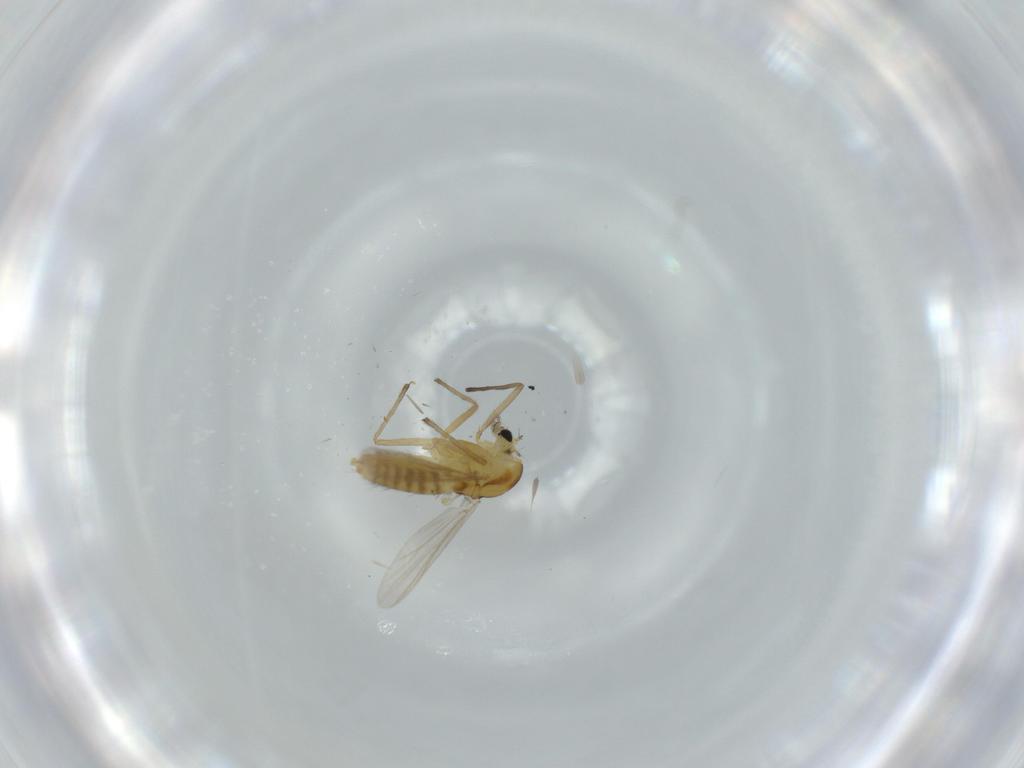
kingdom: Animalia
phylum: Arthropoda
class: Insecta
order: Diptera
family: Chironomidae
